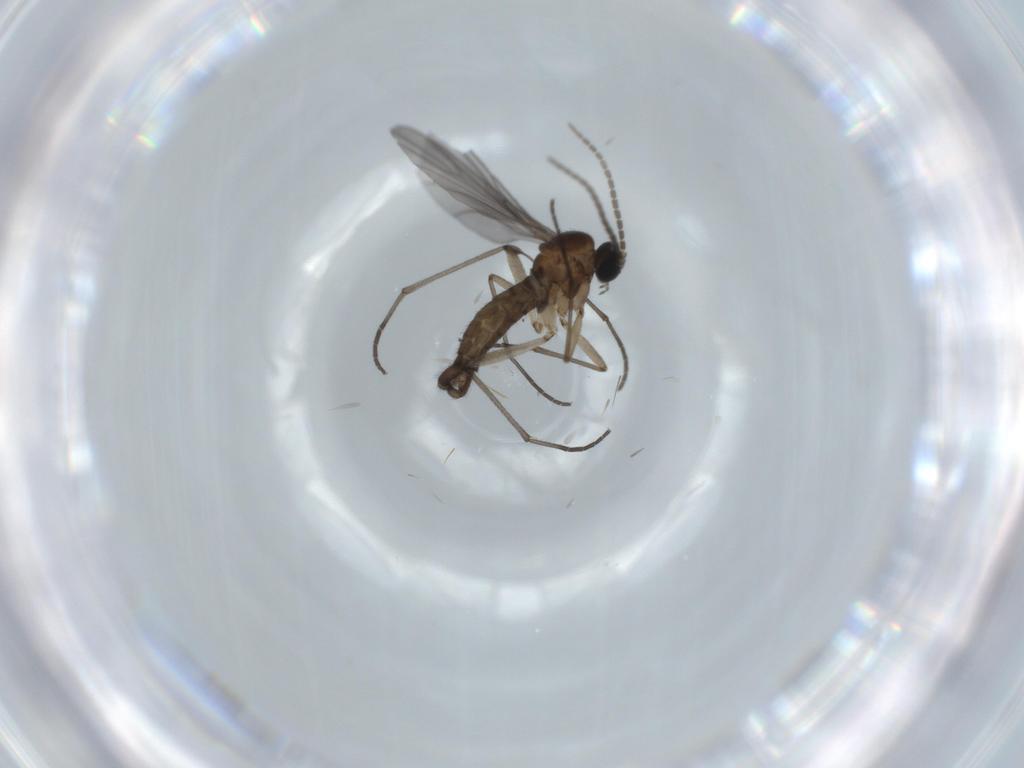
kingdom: Animalia
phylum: Arthropoda
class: Insecta
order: Diptera
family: Sciaridae
